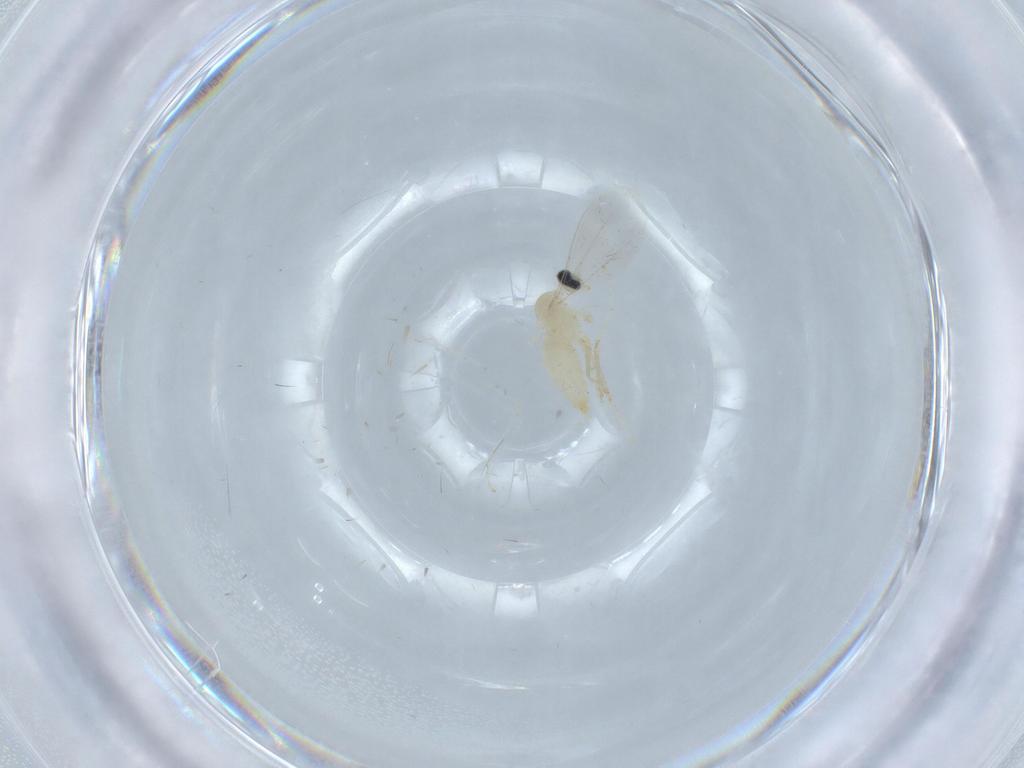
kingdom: Animalia
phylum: Arthropoda
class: Insecta
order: Diptera
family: Cecidomyiidae
